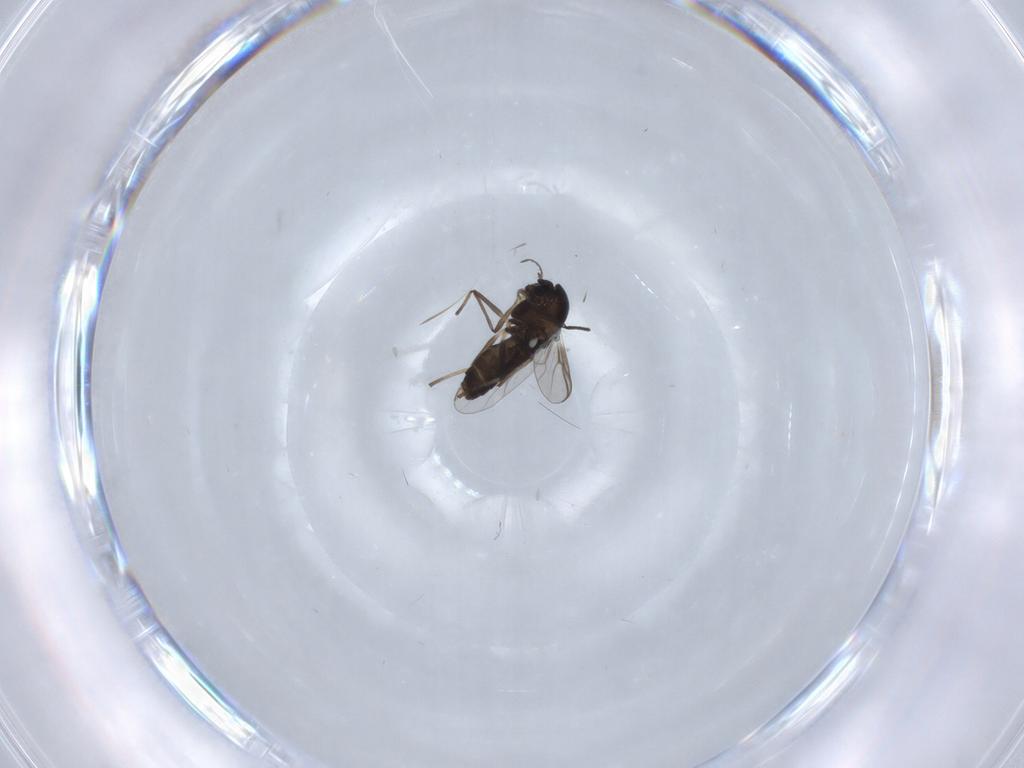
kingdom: Animalia
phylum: Arthropoda
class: Insecta
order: Diptera
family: Chironomidae
